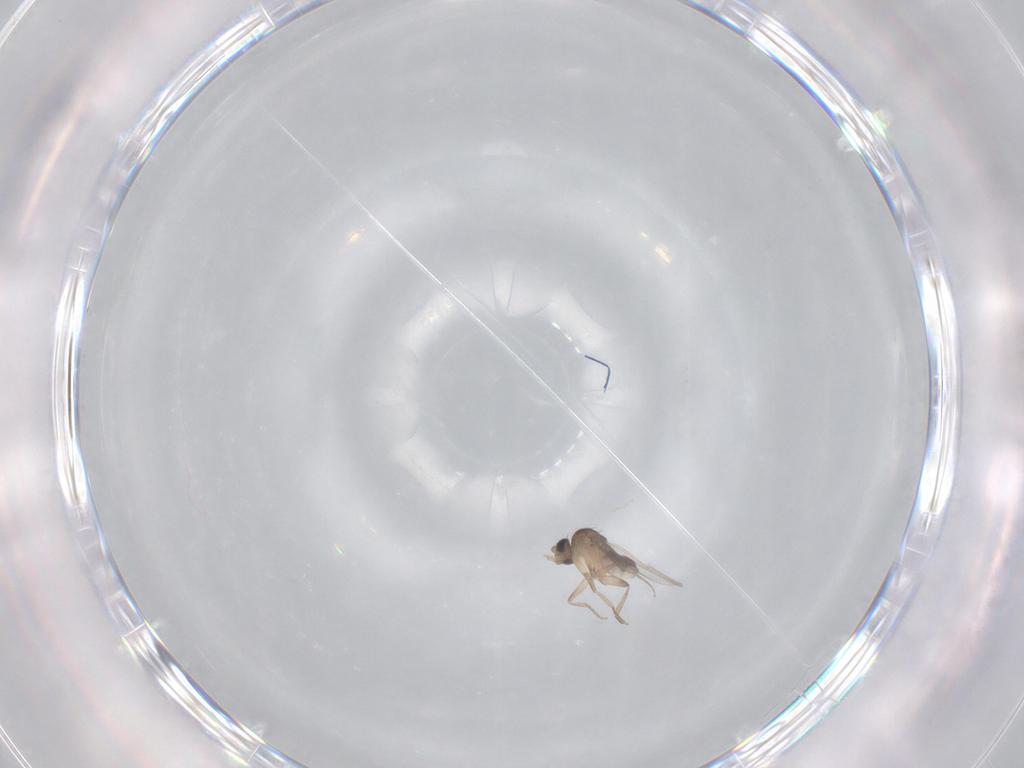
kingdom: Animalia
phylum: Arthropoda
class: Insecta
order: Diptera
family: Phoridae
